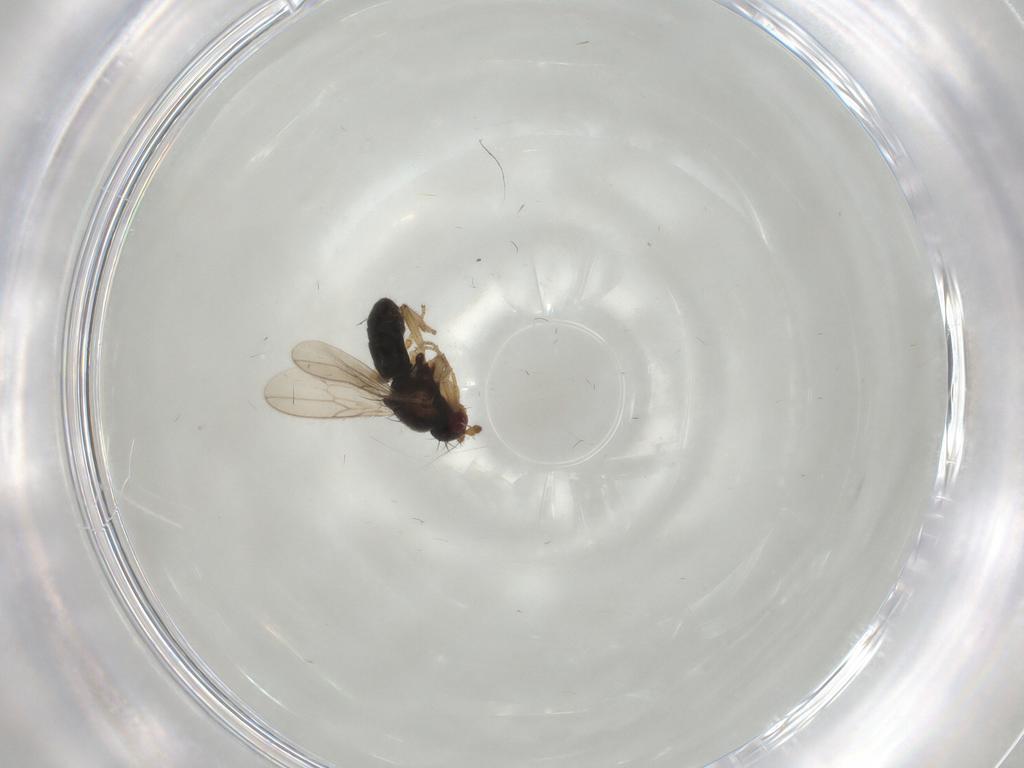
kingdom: Animalia
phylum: Arthropoda
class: Insecta
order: Diptera
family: Sphaeroceridae
